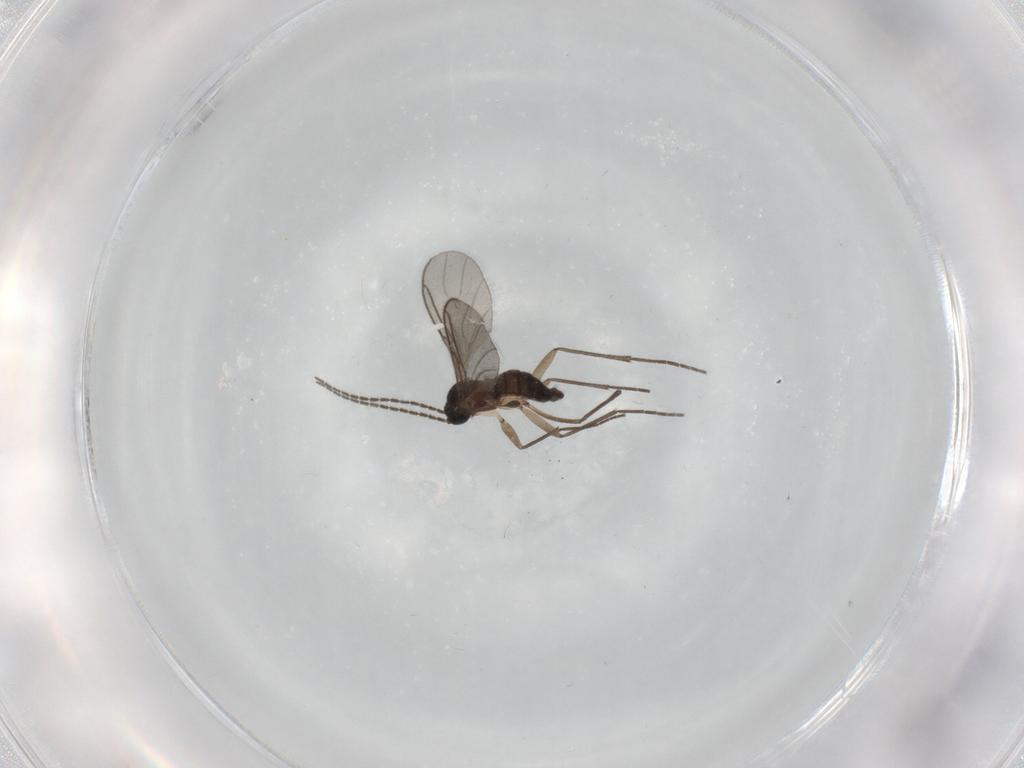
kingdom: Animalia
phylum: Arthropoda
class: Insecta
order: Diptera
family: Sciaridae
